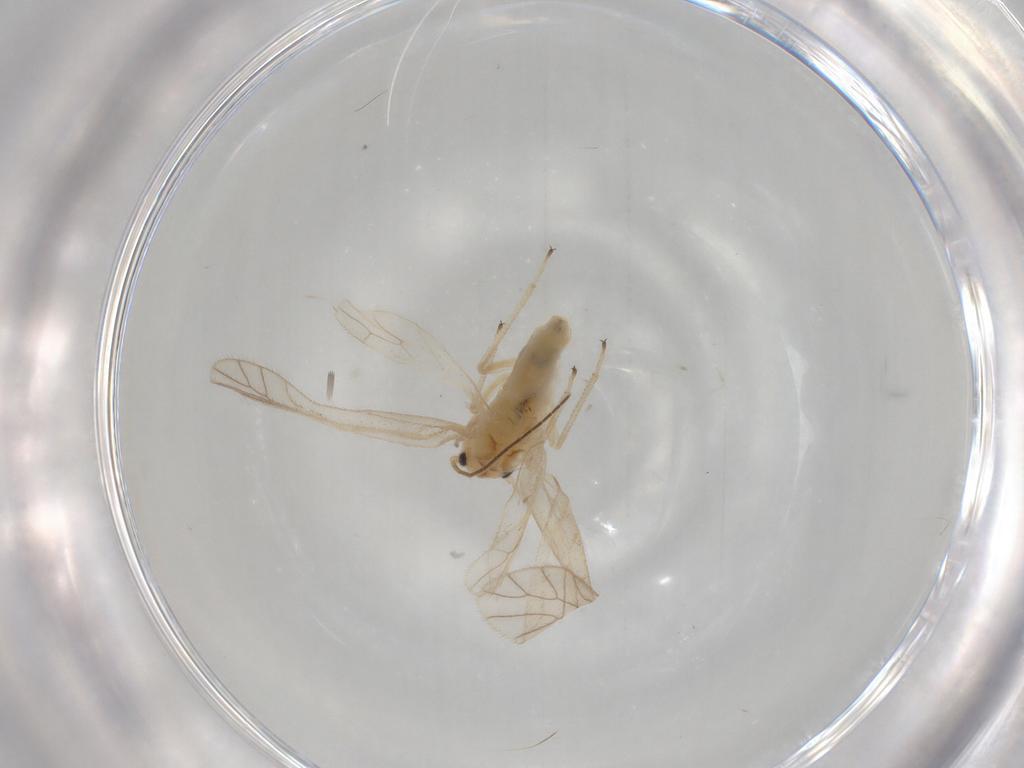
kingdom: Animalia
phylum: Arthropoda
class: Insecta
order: Psocodea
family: Caeciliusidae
